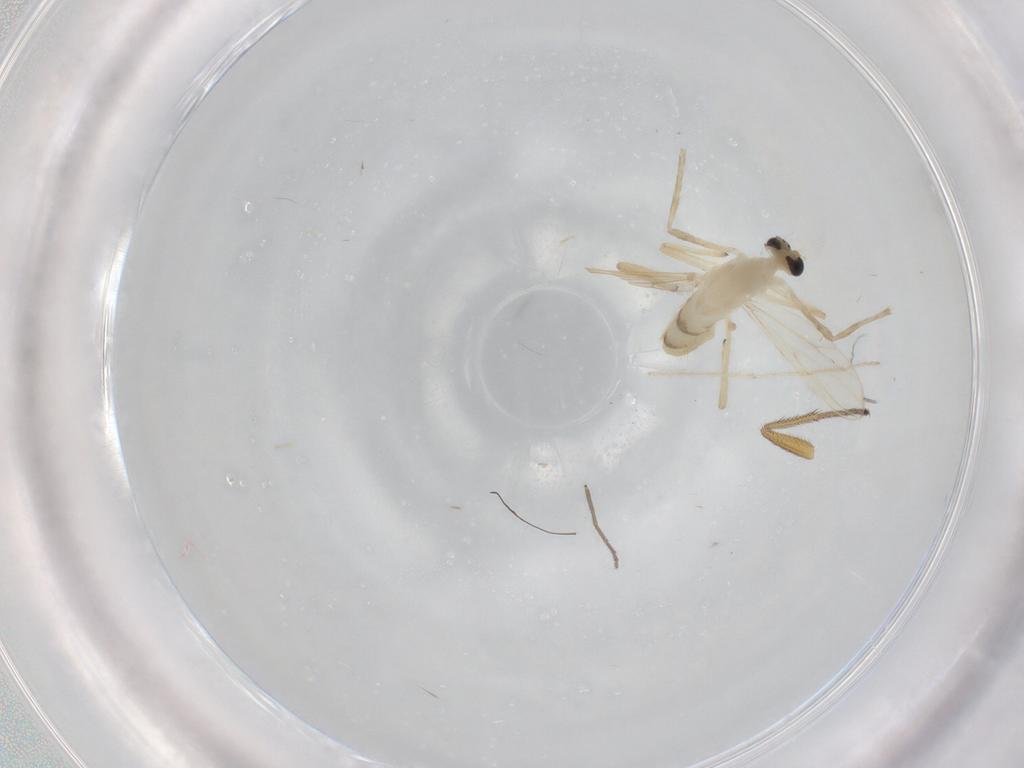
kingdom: Animalia
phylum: Arthropoda
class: Insecta
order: Diptera
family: Chironomidae
